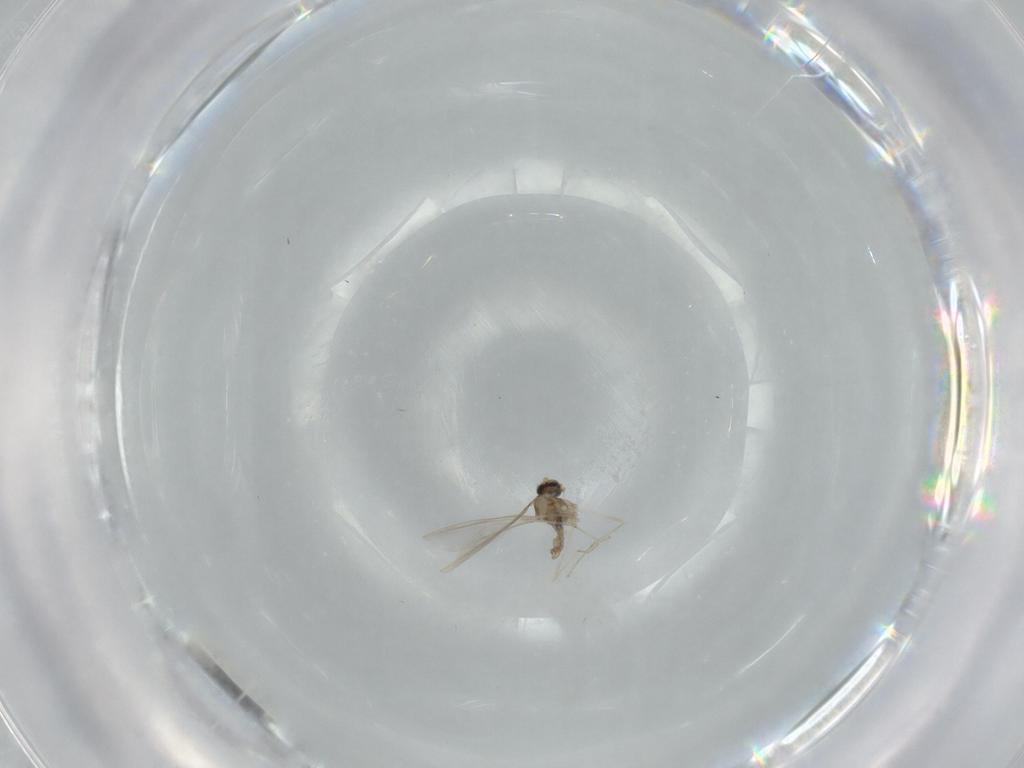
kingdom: Animalia
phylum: Arthropoda
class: Insecta
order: Diptera
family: Cecidomyiidae
